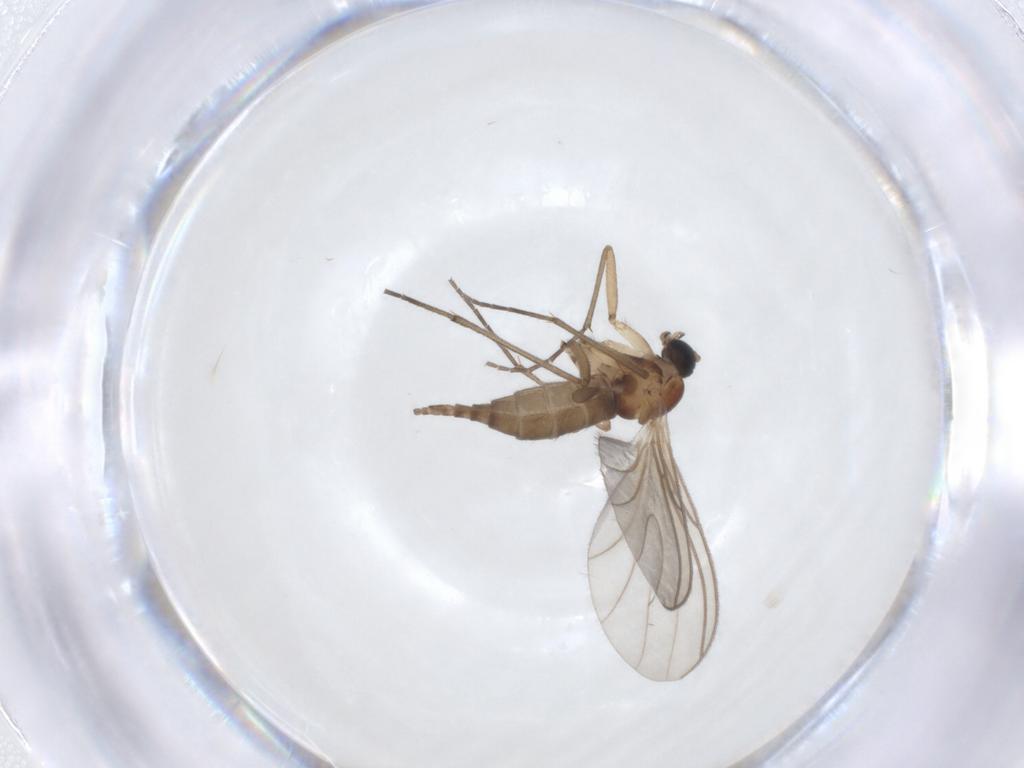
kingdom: Animalia
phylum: Arthropoda
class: Insecta
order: Diptera
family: Sciaridae
